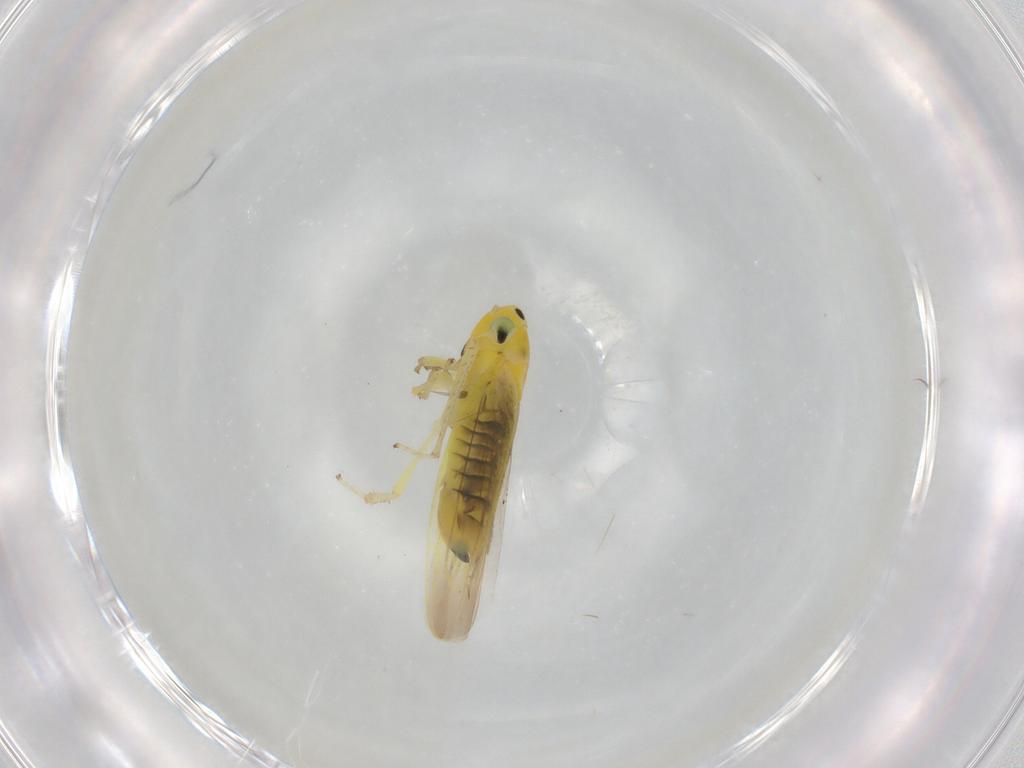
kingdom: Animalia
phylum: Arthropoda
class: Insecta
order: Hemiptera
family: Cicadellidae
